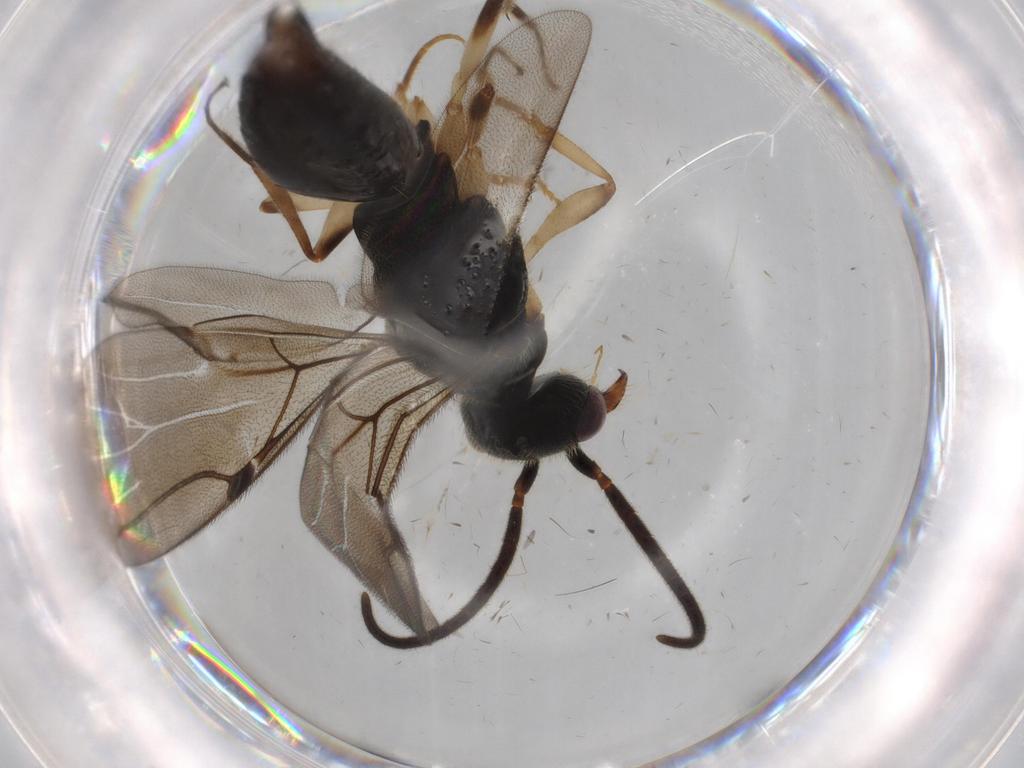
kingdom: Animalia
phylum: Arthropoda
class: Insecta
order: Hymenoptera
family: Bethylidae
